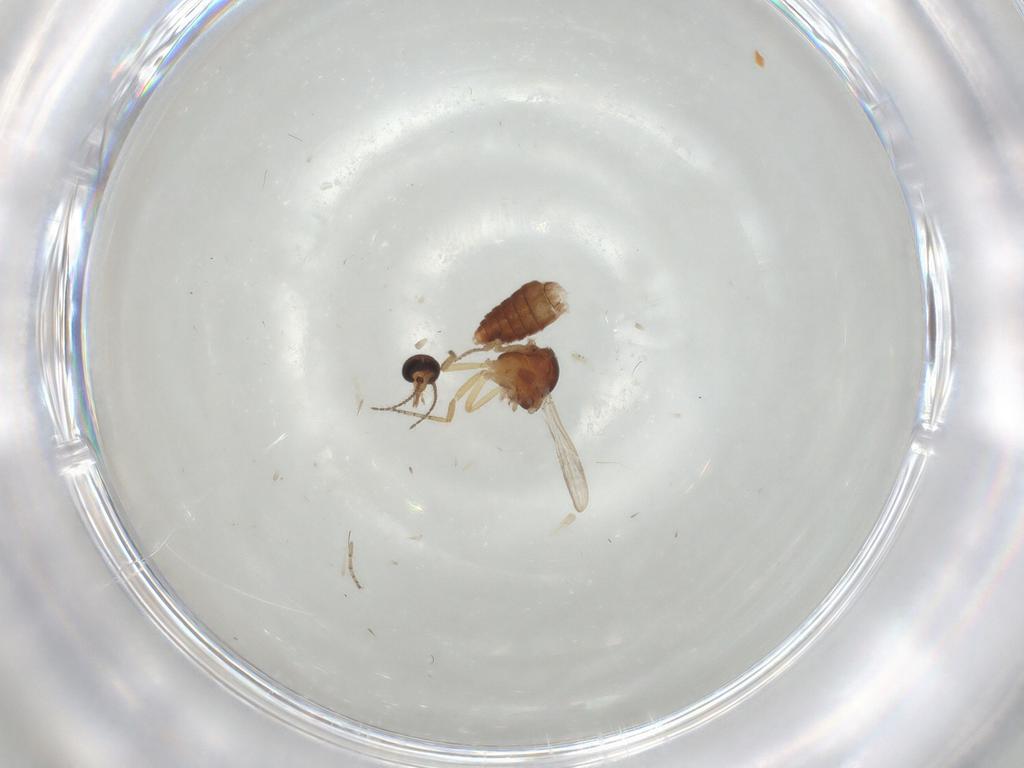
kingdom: Animalia
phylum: Arthropoda
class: Insecta
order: Diptera
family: Ceratopogonidae
